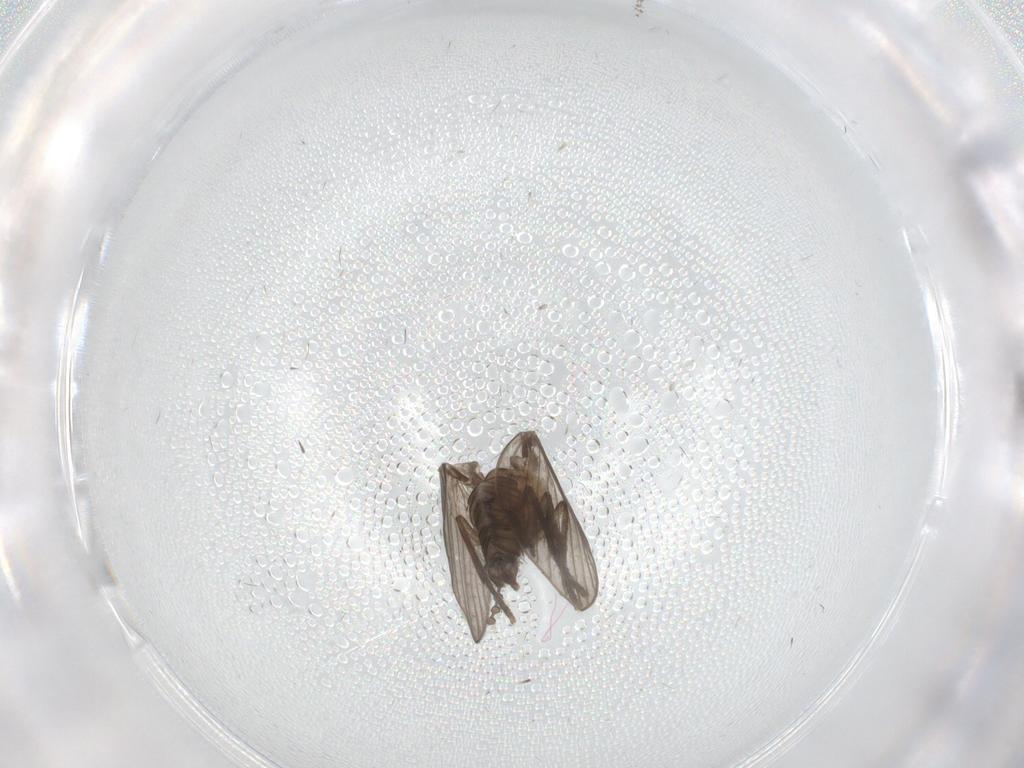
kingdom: Animalia
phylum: Arthropoda
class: Insecta
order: Diptera
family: Psychodidae
